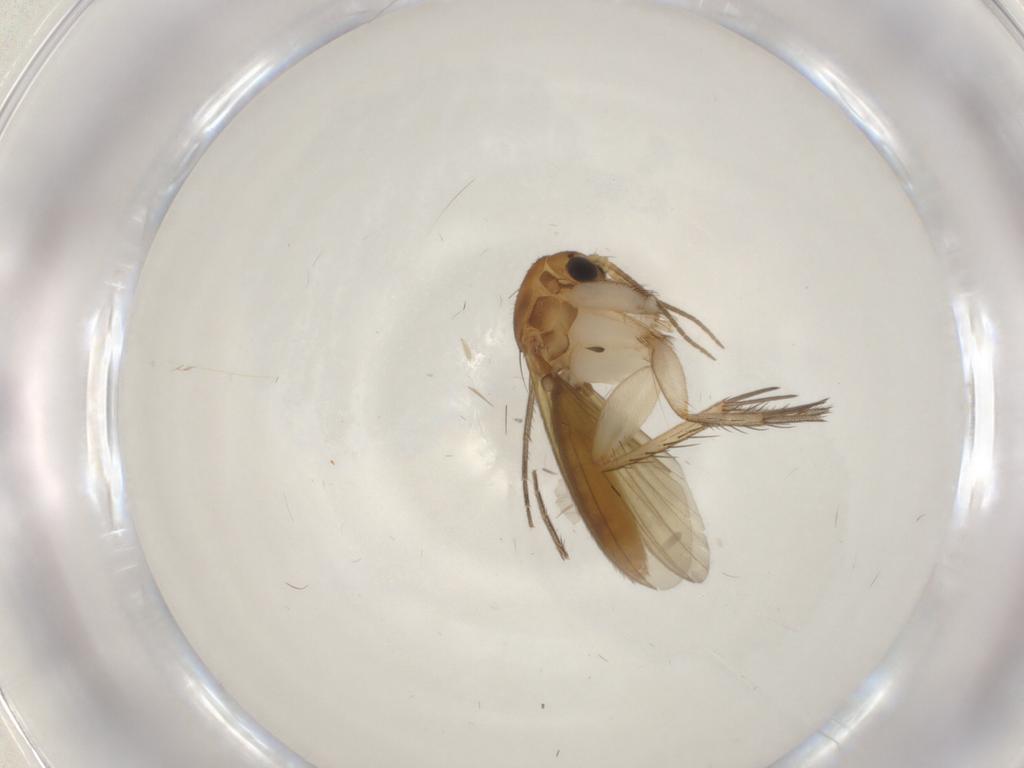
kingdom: Animalia
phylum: Arthropoda
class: Insecta
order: Diptera
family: Mycetophilidae
